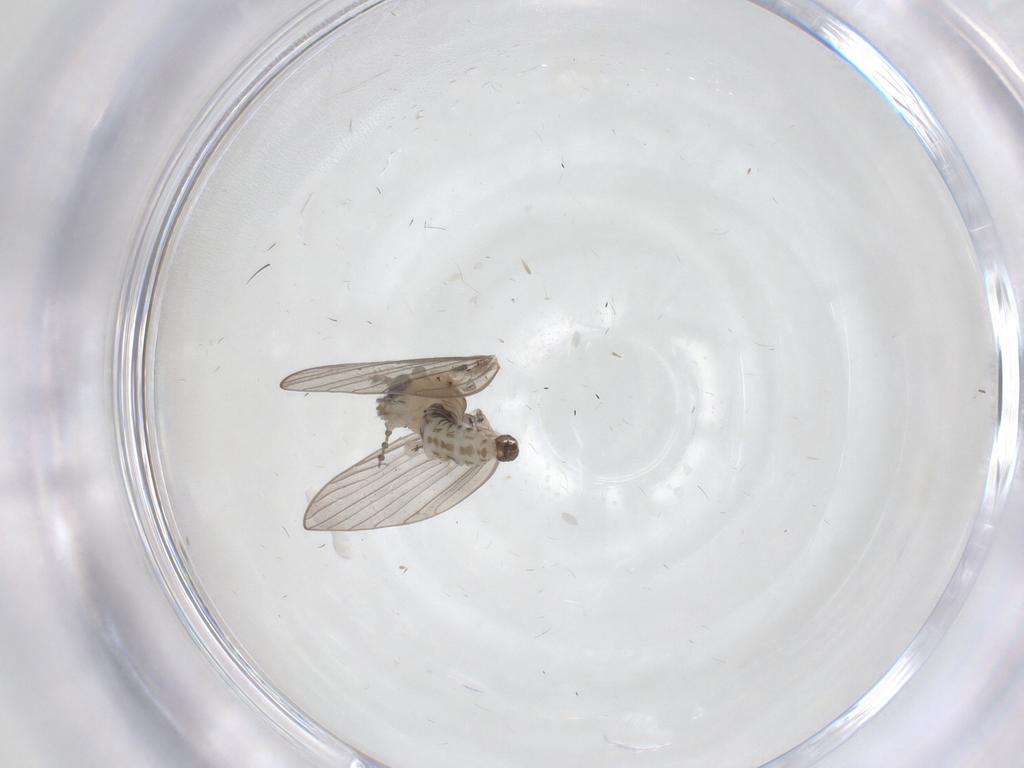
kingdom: Animalia
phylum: Arthropoda
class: Insecta
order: Diptera
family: Psychodidae
